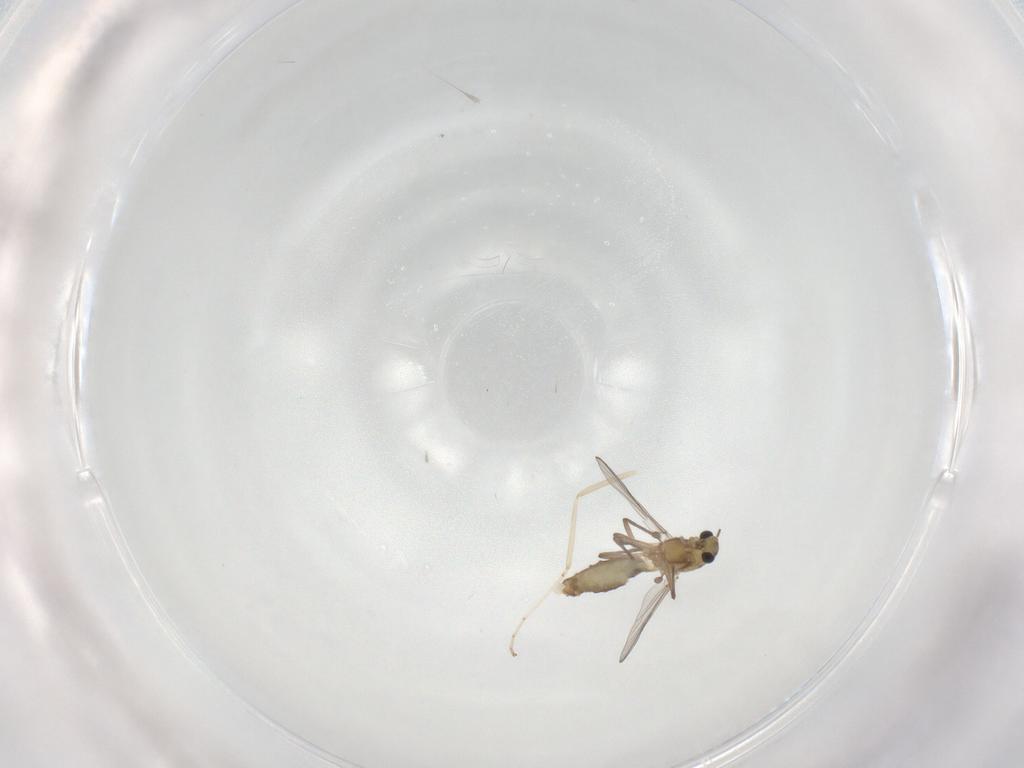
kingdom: Animalia
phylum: Arthropoda
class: Insecta
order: Diptera
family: Chironomidae
